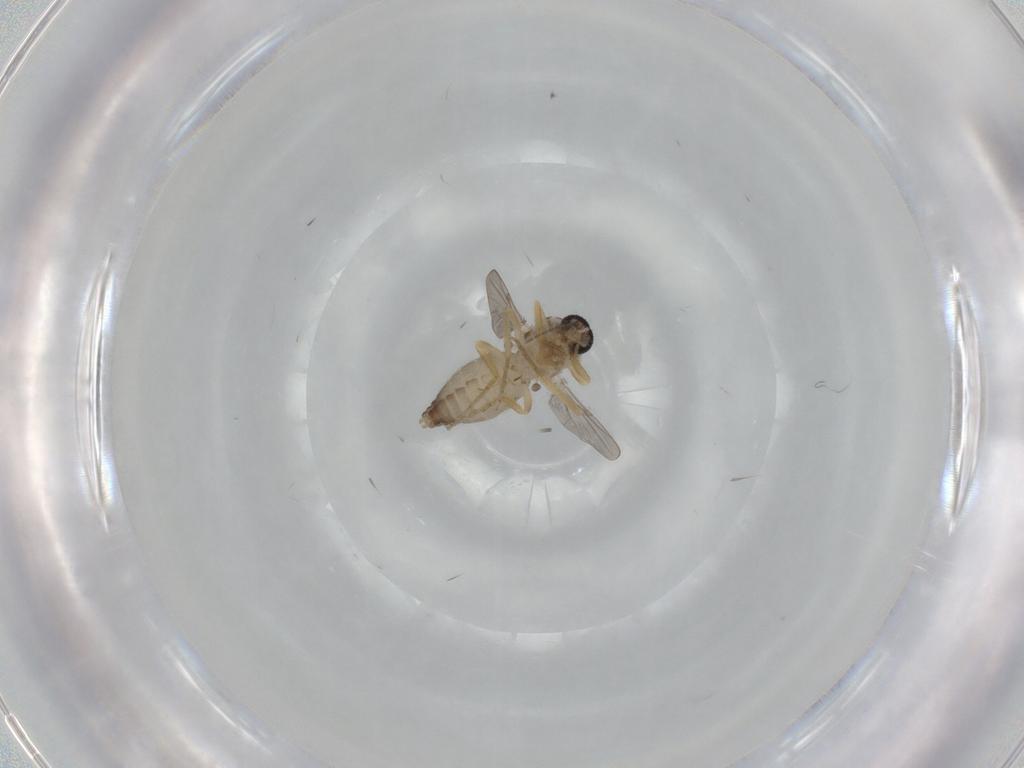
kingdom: Animalia
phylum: Arthropoda
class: Insecta
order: Diptera
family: Ceratopogonidae
